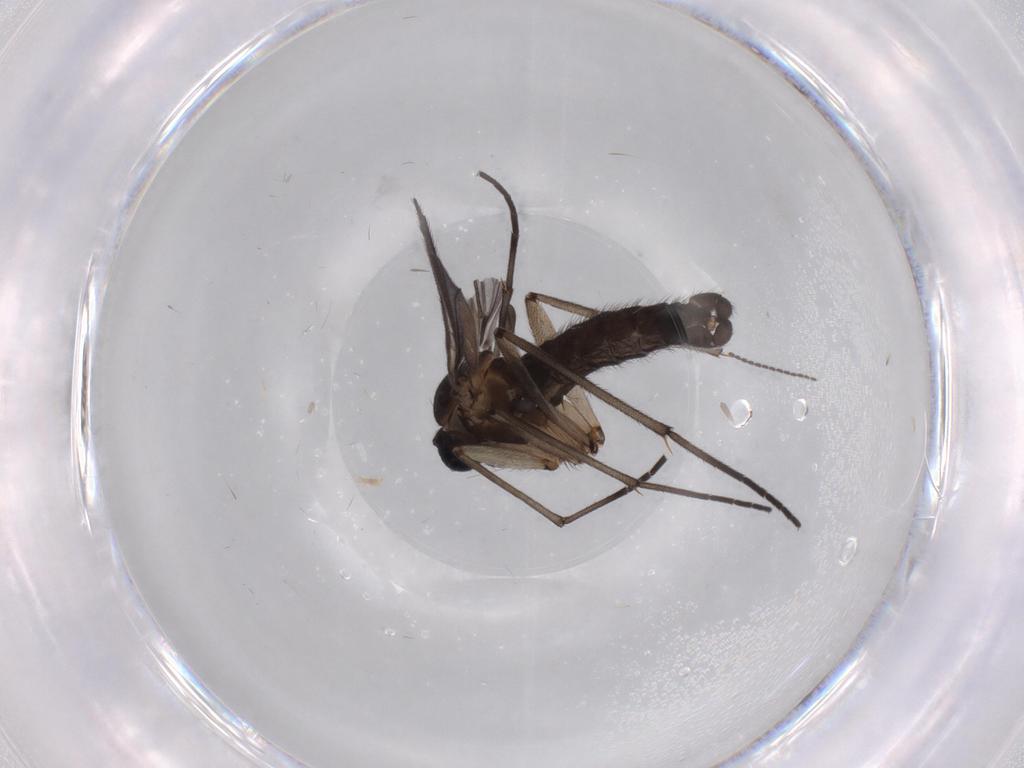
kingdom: Animalia
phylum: Arthropoda
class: Insecta
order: Diptera
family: Sciaridae
